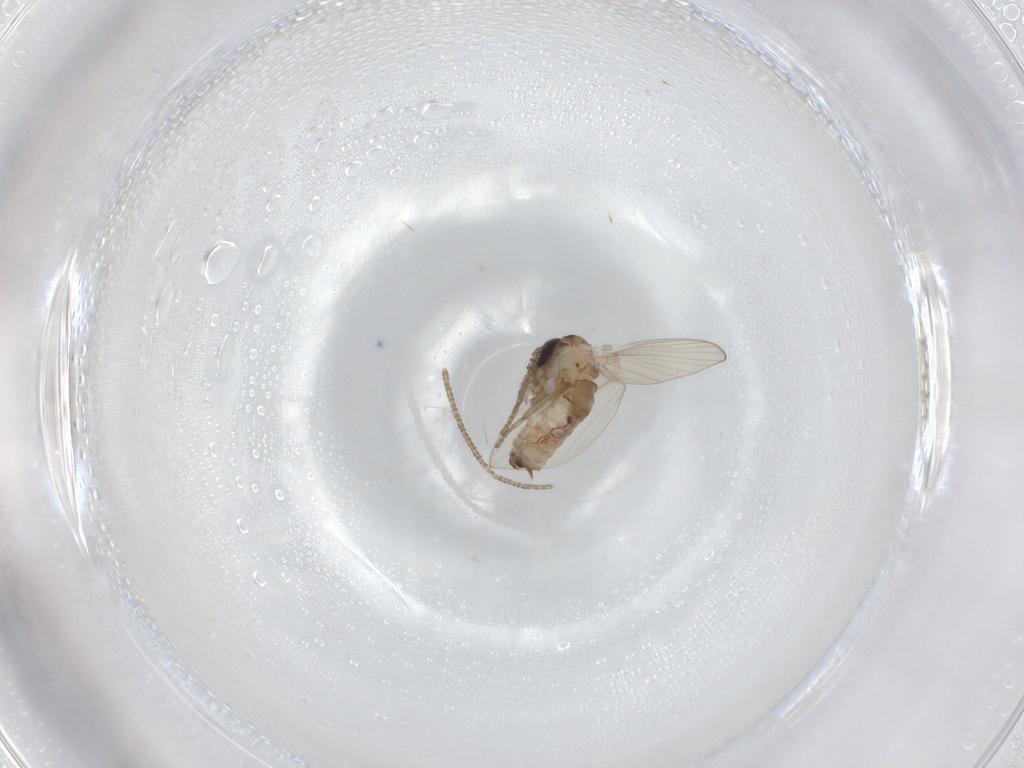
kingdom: Animalia
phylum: Arthropoda
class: Insecta
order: Diptera
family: Psychodidae
